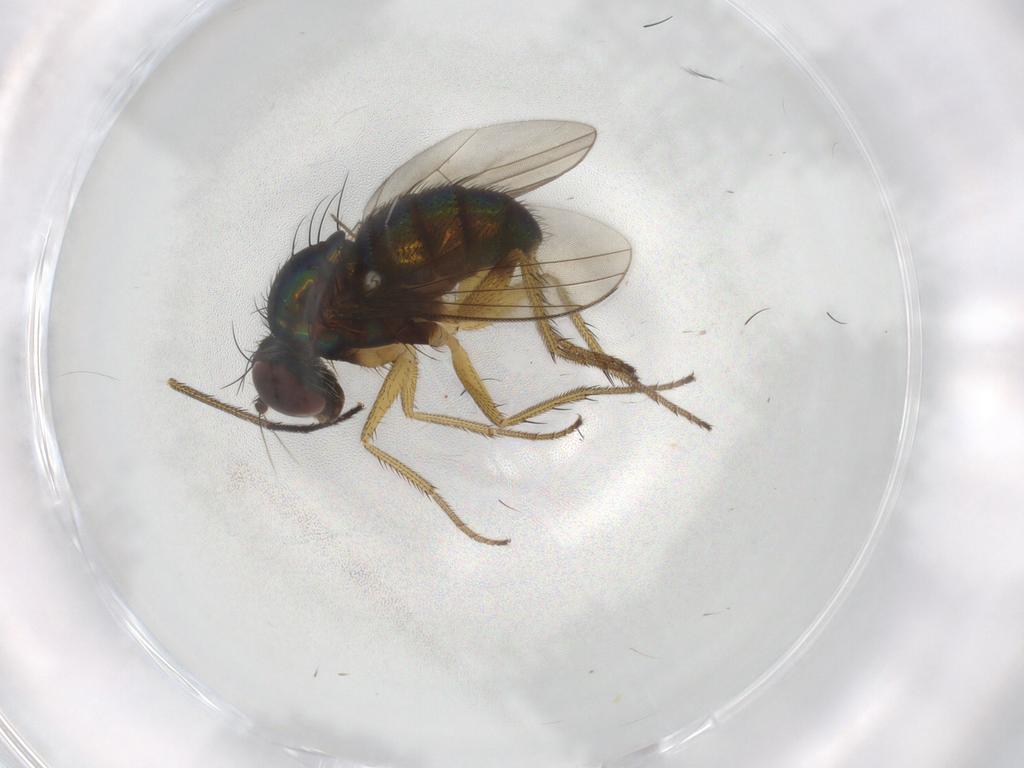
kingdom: Animalia
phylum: Arthropoda
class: Insecta
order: Diptera
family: Dolichopodidae
